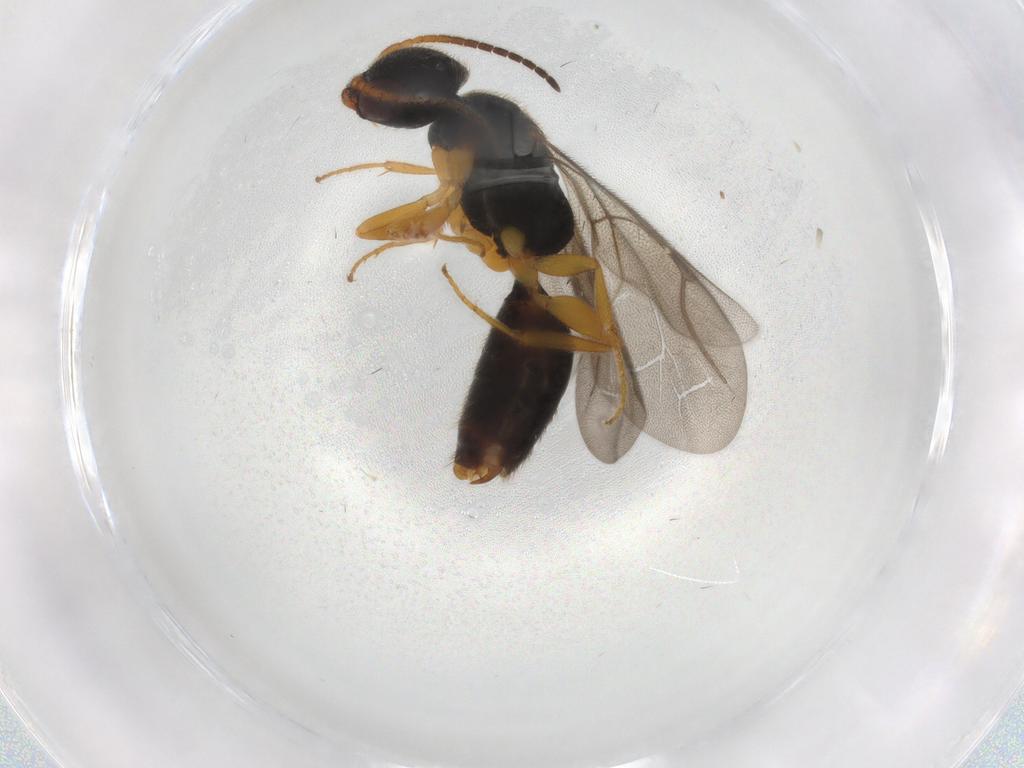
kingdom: Animalia
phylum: Arthropoda
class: Insecta
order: Hymenoptera
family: Bethylidae
